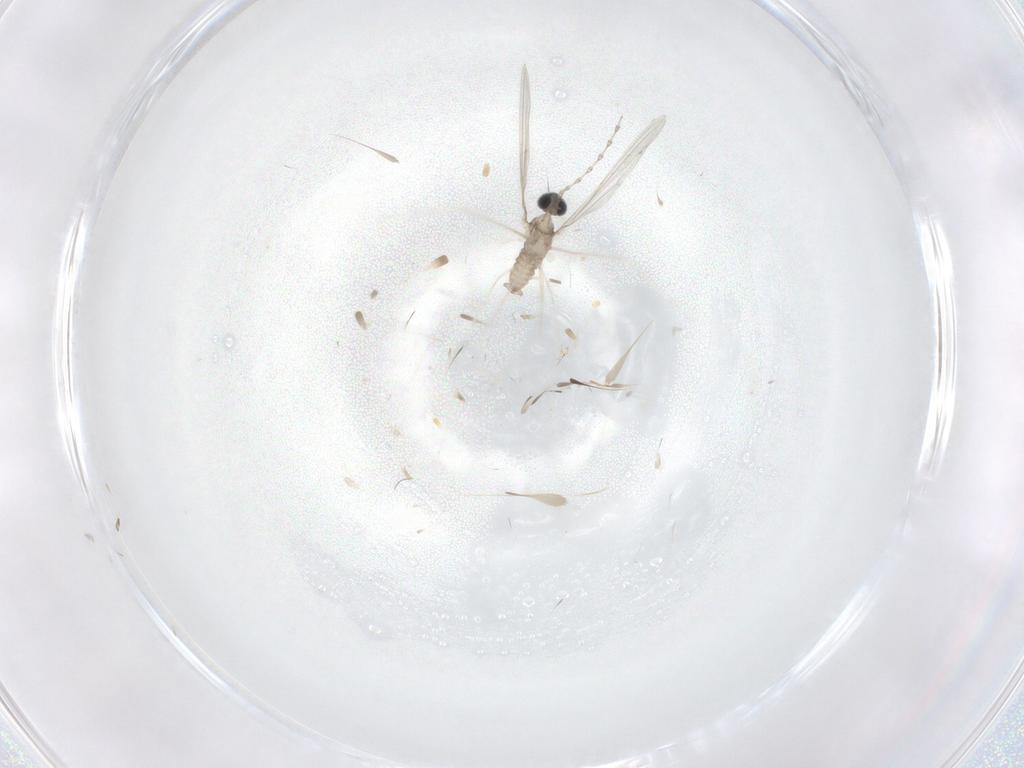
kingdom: Animalia
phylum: Arthropoda
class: Insecta
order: Diptera
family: Cecidomyiidae
